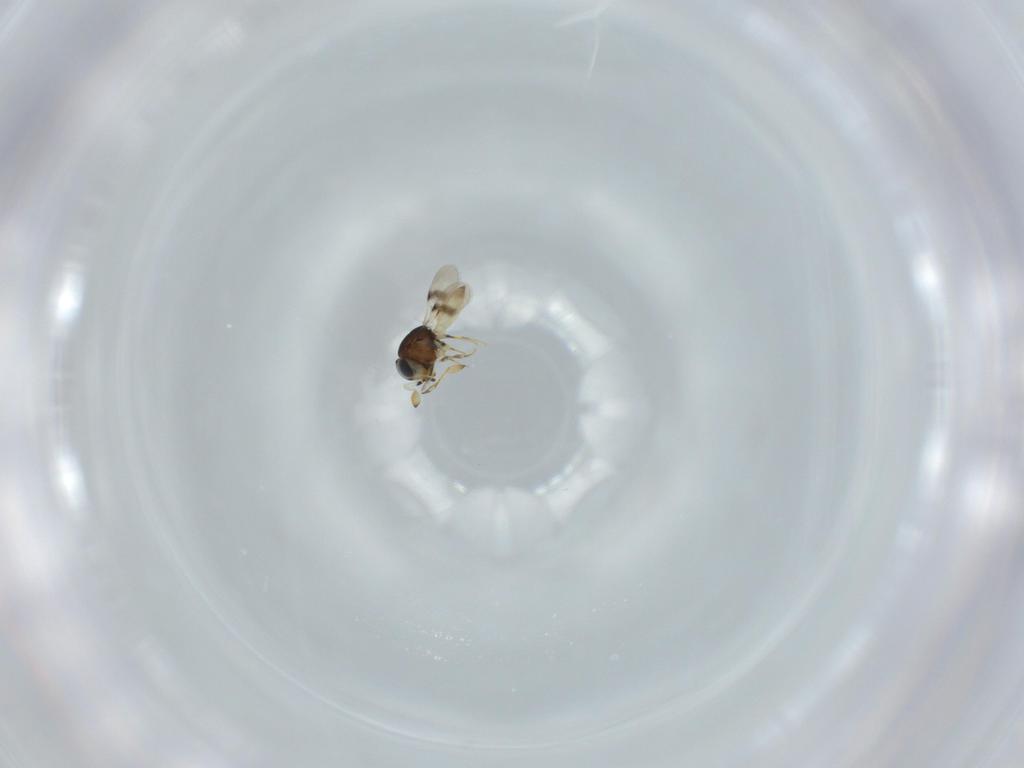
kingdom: Animalia
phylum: Arthropoda
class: Insecta
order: Hymenoptera
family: Scelionidae
